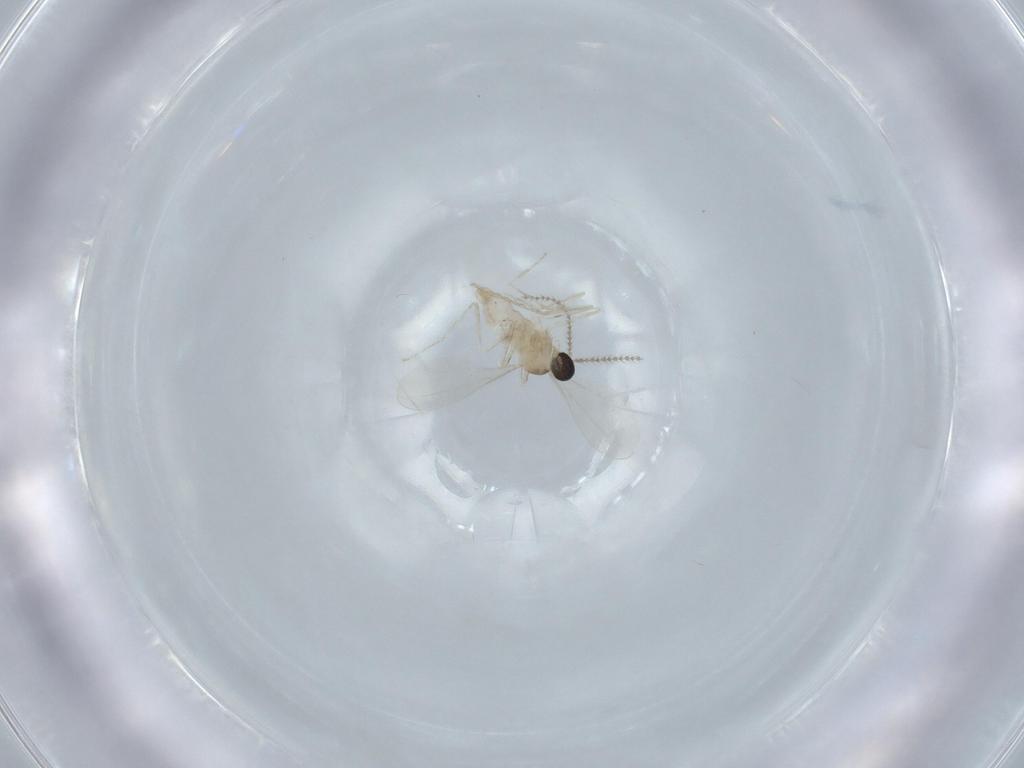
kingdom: Animalia
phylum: Arthropoda
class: Insecta
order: Diptera
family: Cecidomyiidae
